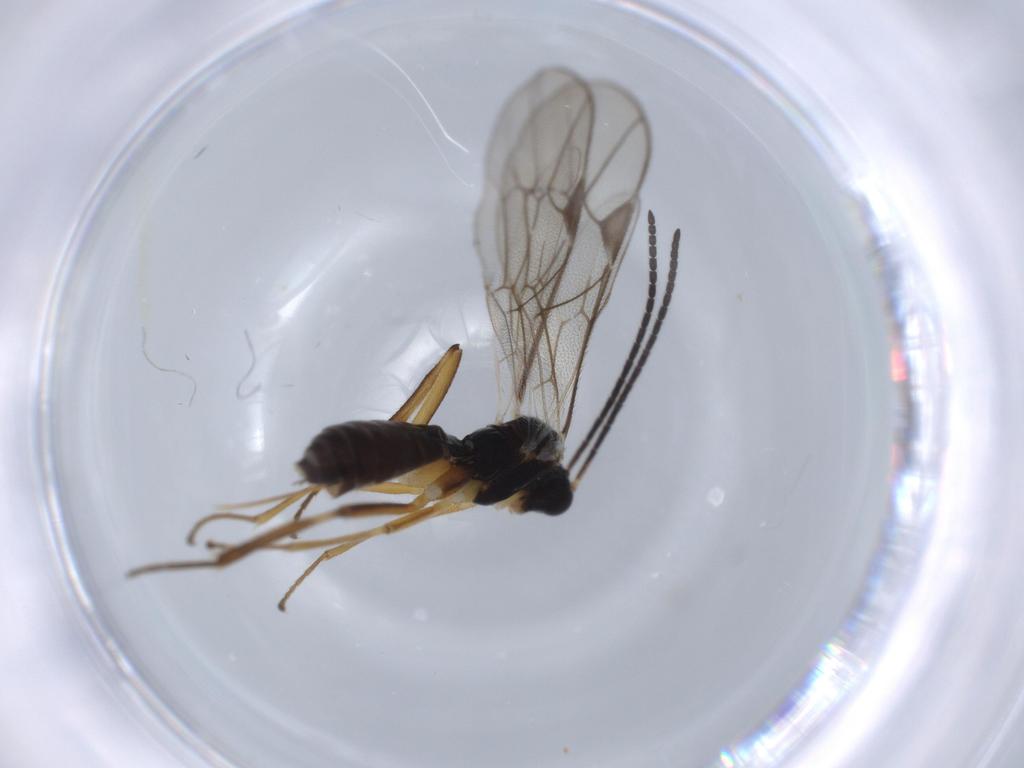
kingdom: Animalia
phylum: Arthropoda
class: Insecta
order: Hymenoptera
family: Ichneumonidae
